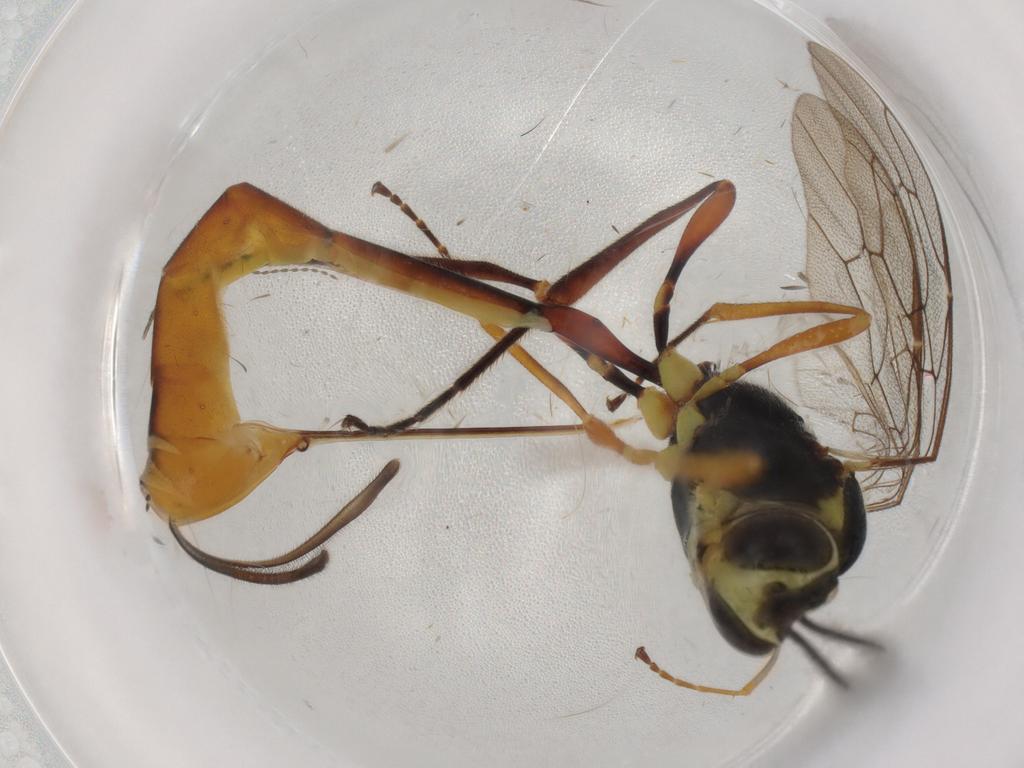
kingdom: Animalia
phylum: Arthropoda
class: Insecta
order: Hymenoptera
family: Ichneumonidae
